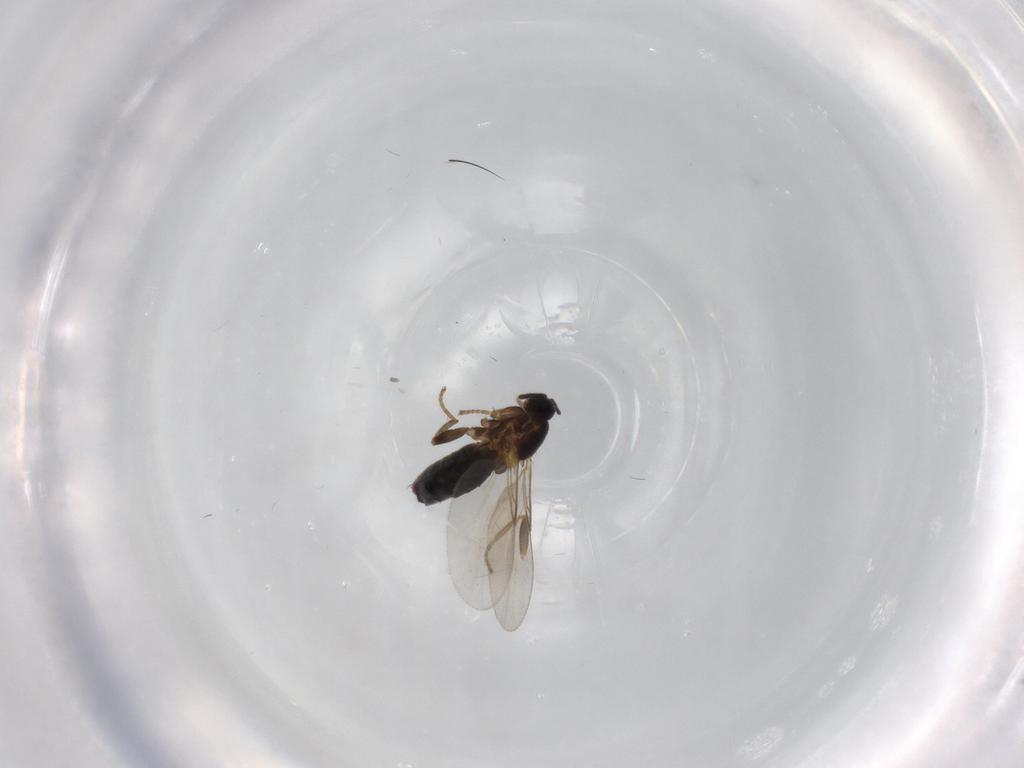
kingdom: Animalia
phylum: Arthropoda
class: Insecta
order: Diptera
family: Scatopsidae
